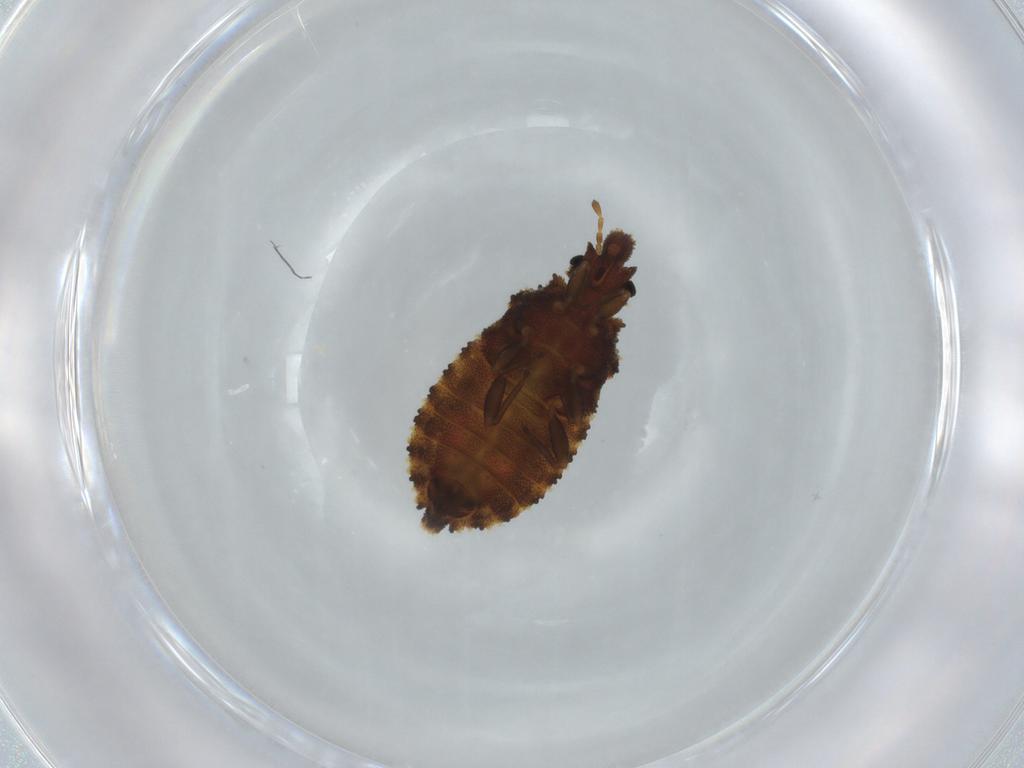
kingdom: Animalia
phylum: Arthropoda
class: Insecta
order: Hemiptera
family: Aradidae
